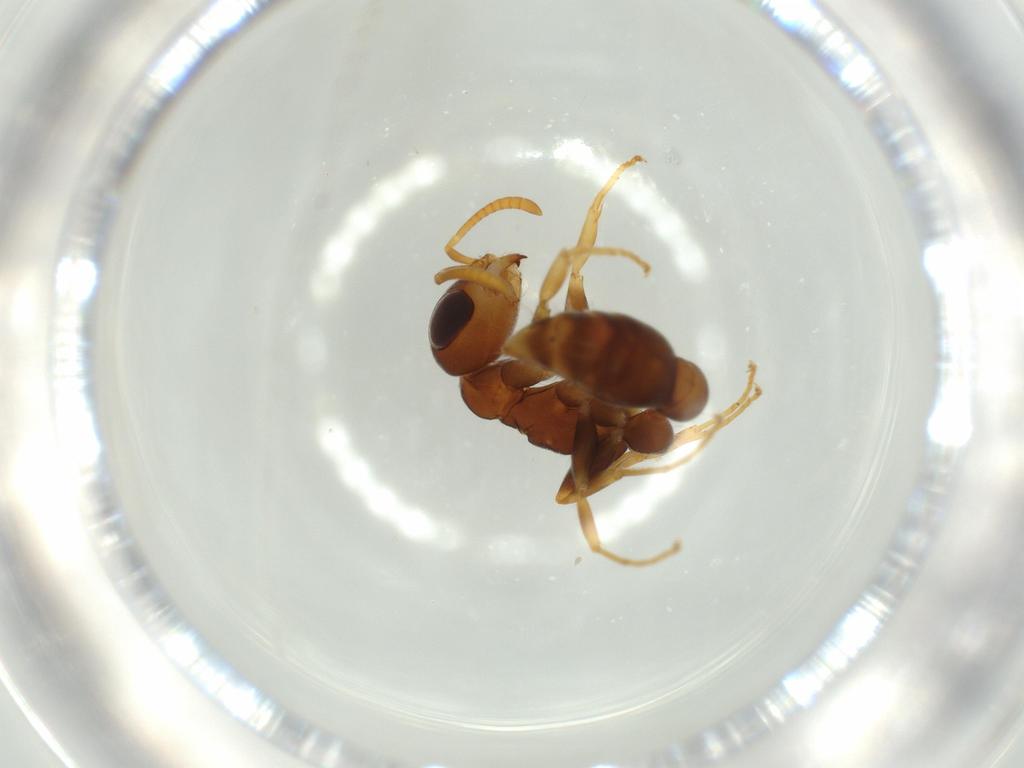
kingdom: Animalia
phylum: Arthropoda
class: Insecta
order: Hymenoptera
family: Formicidae
